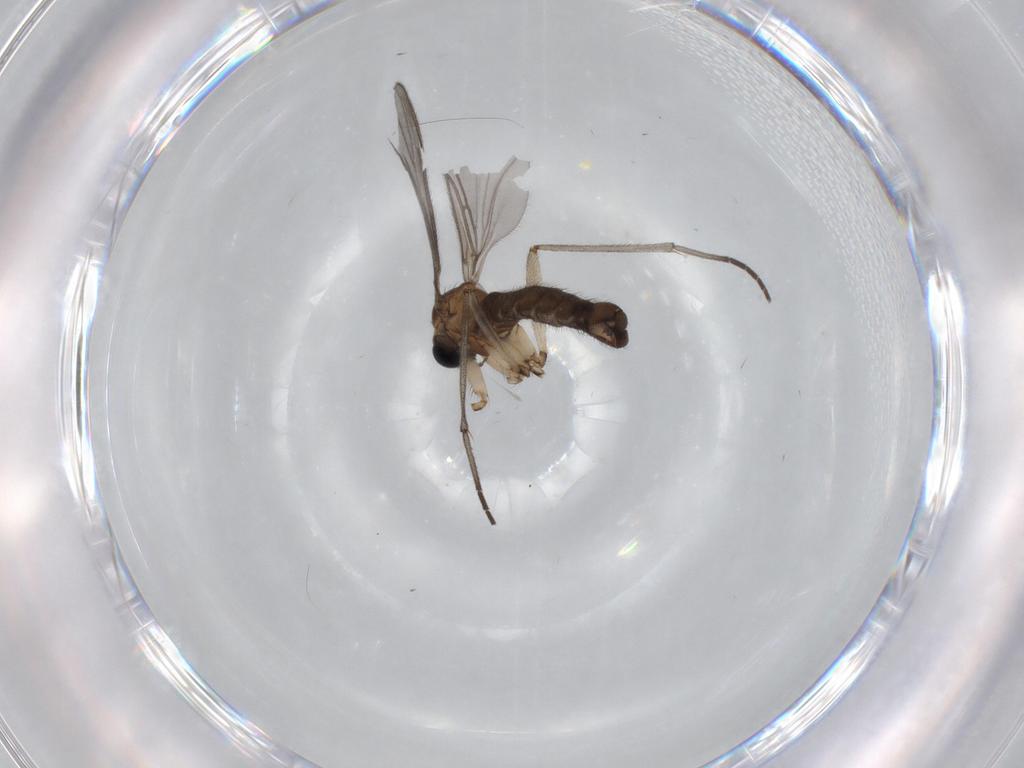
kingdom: Animalia
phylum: Arthropoda
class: Insecta
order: Diptera
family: Sciaridae
